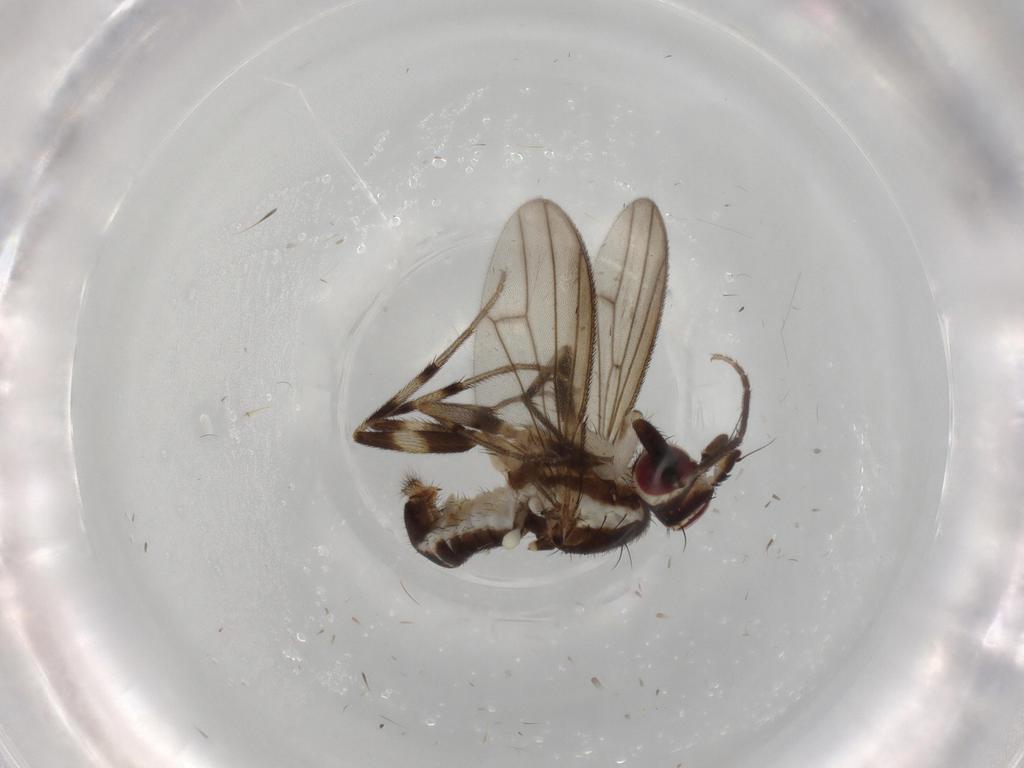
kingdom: Animalia
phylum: Arthropoda
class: Insecta
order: Diptera
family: Pseudopomyzidae
